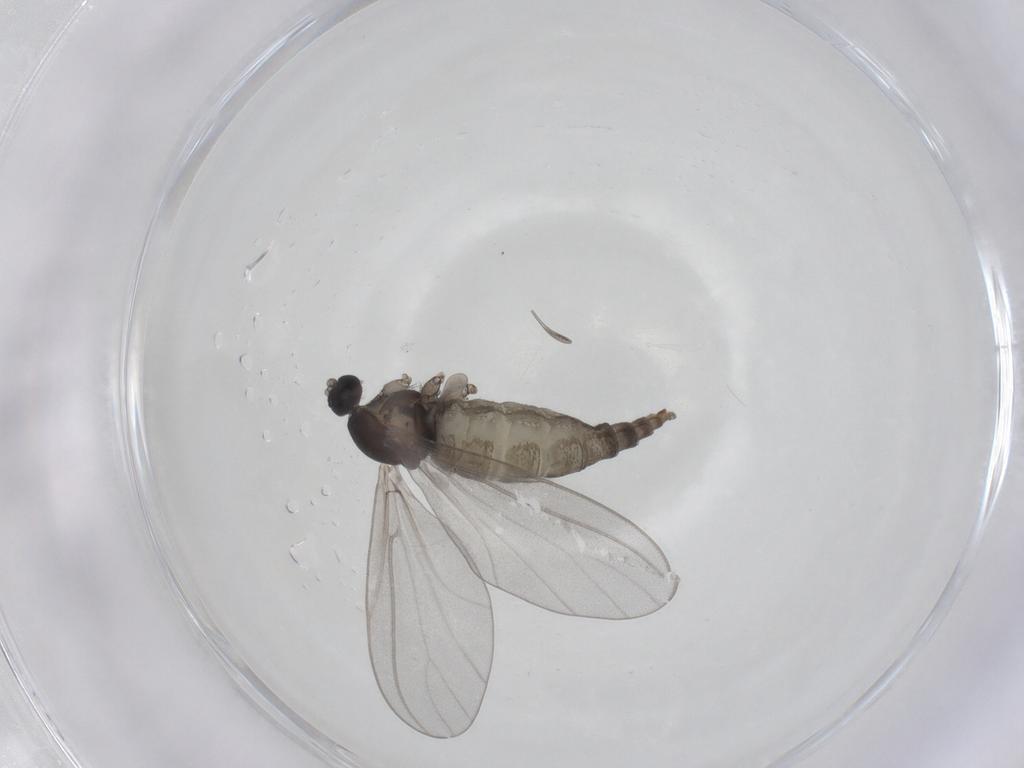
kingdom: Animalia
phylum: Arthropoda
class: Insecta
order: Diptera
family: Cecidomyiidae
